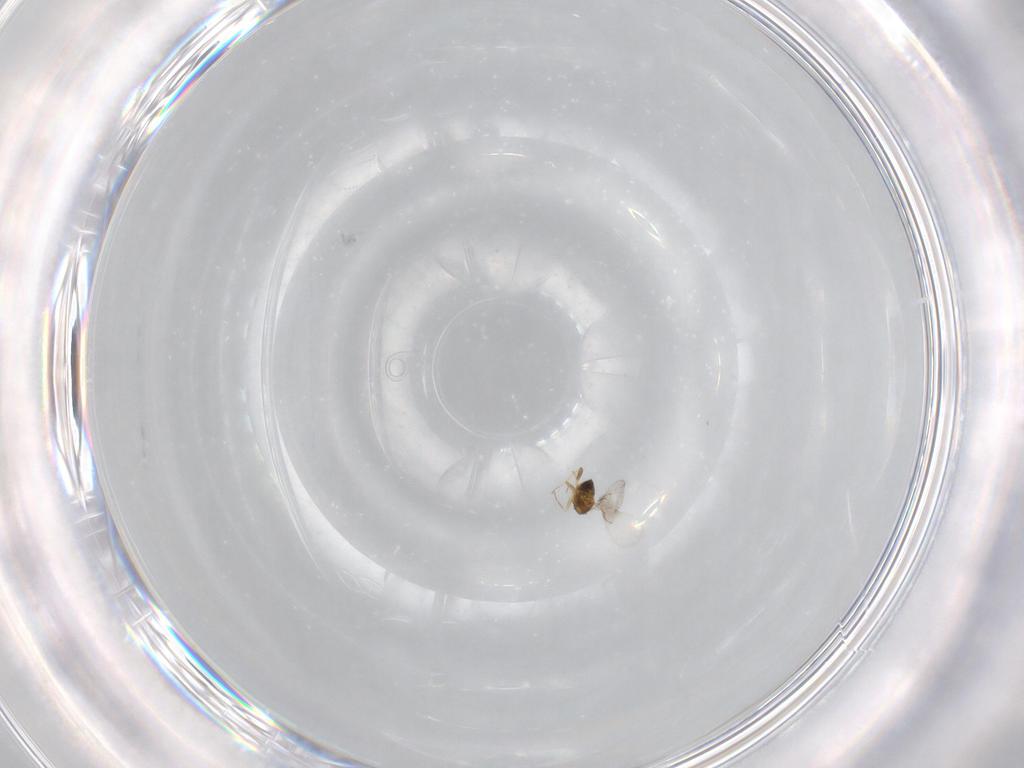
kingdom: Animalia
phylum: Arthropoda
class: Insecta
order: Hymenoptera
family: Trichogrammatidae
